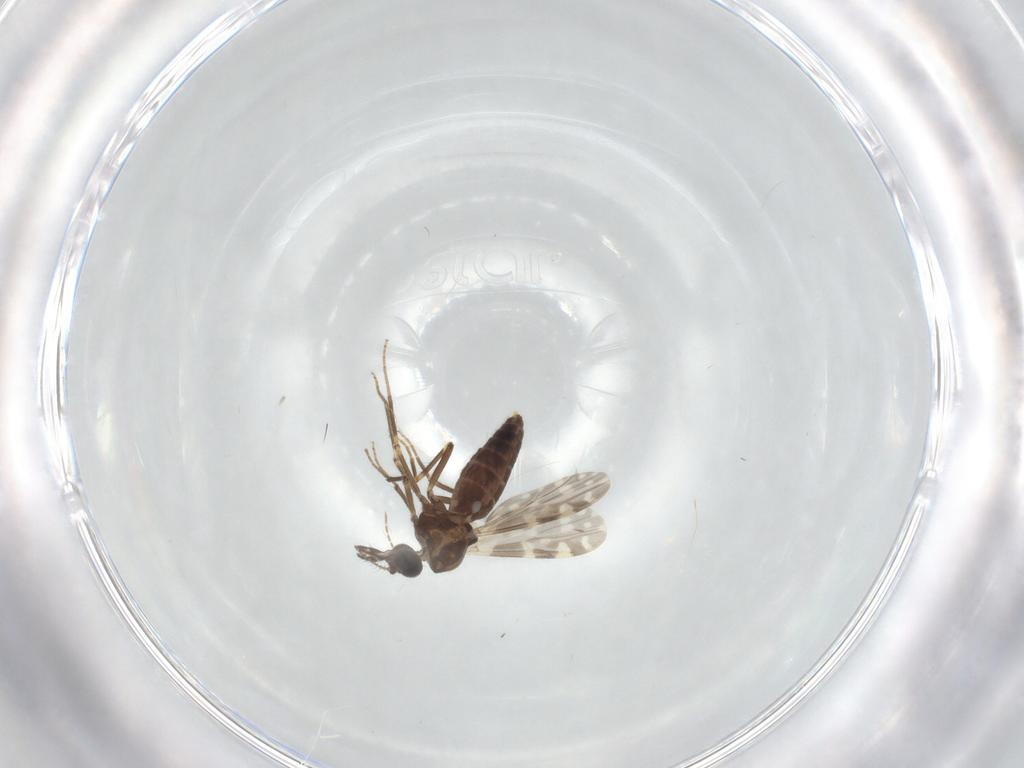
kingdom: Animalia
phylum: Arthropoda
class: Insecta
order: Diptera
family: Ceratopogonidae
